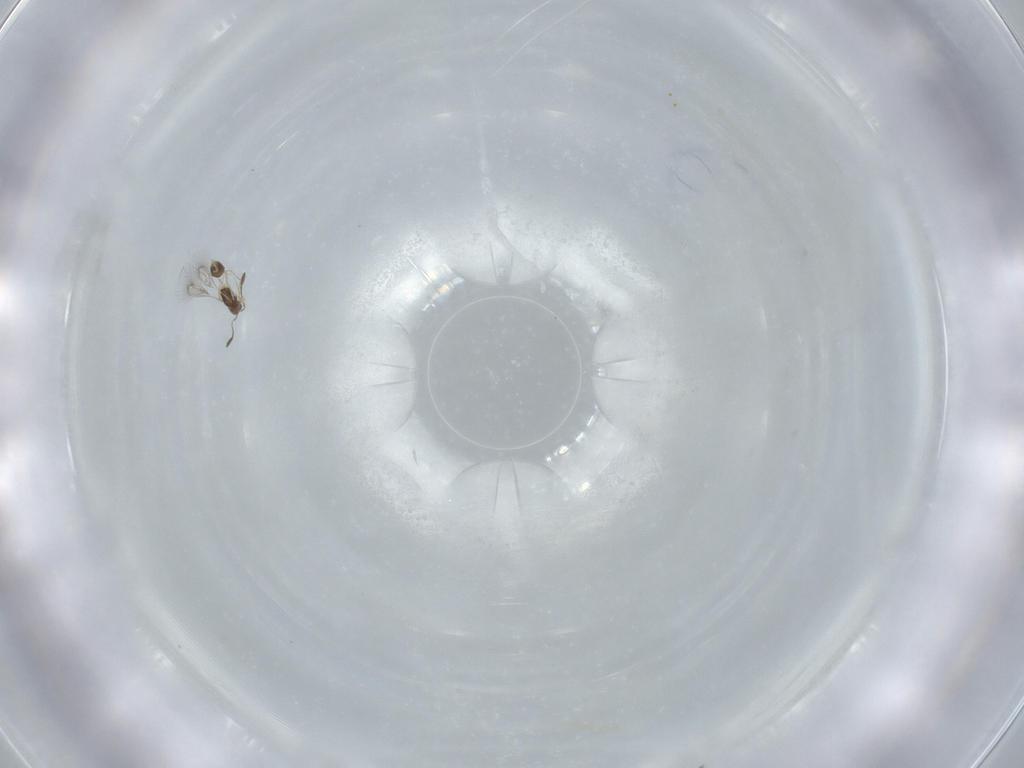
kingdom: Animalia
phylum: Arthropoda
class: Insecta
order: Hymenoptera
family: Mymarommatidae
